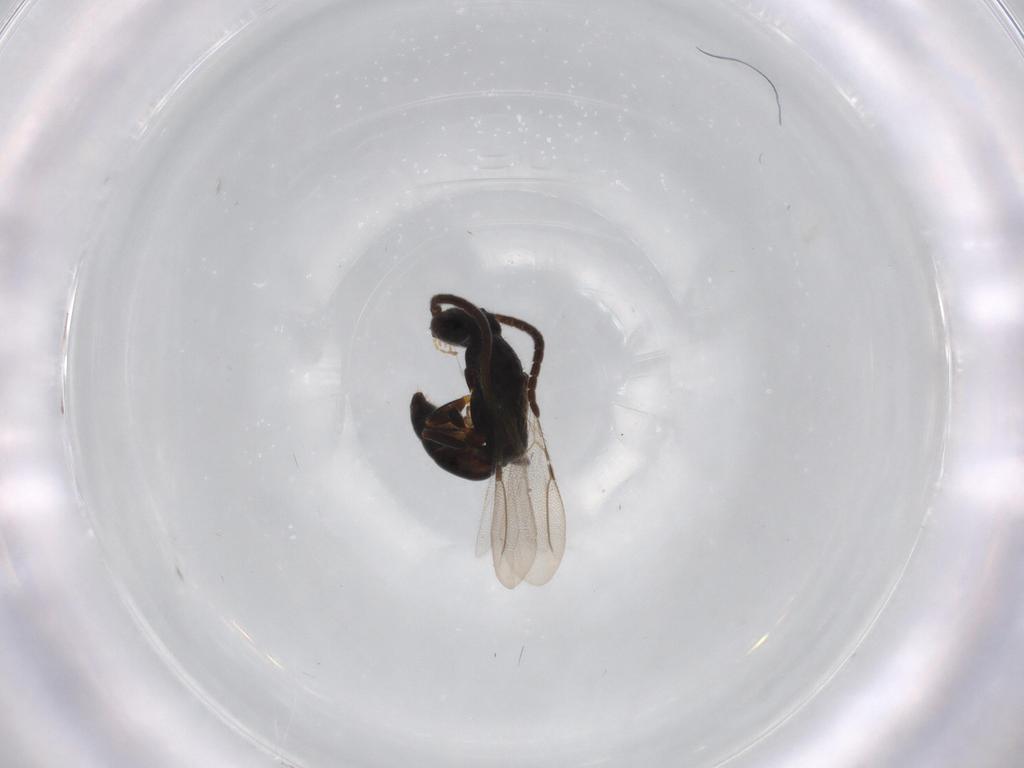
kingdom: Animalia
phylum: Arthropoda
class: Insecta
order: Hymenoptera
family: Bethylidae
